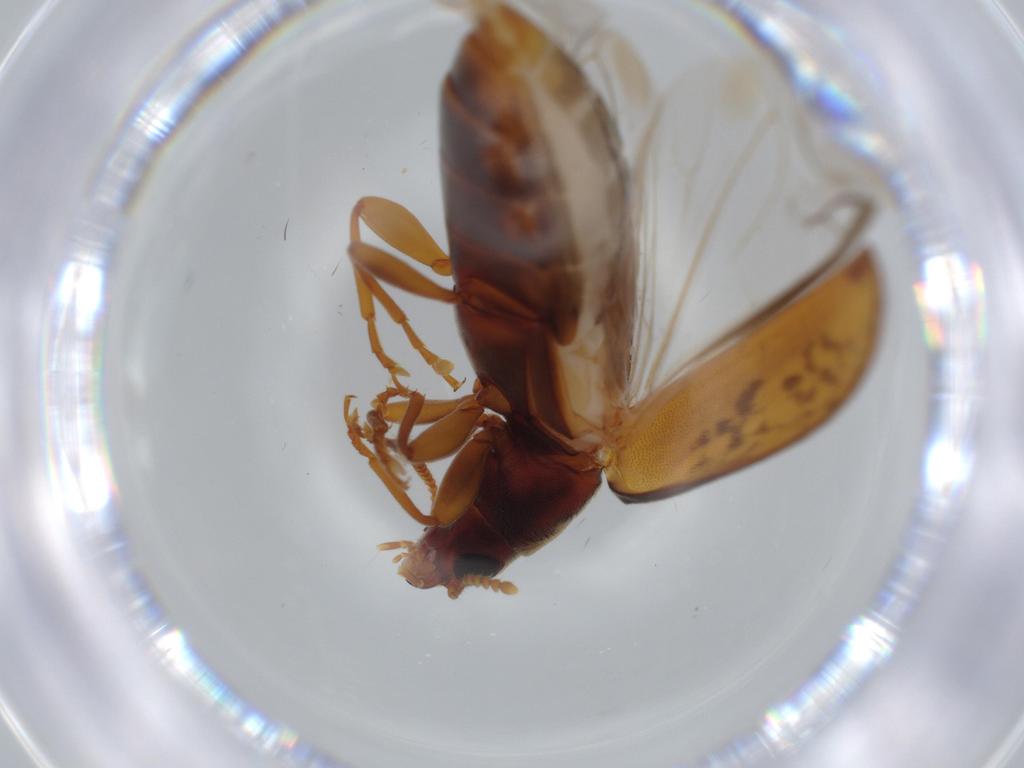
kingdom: Animalia
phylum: Arthropoda
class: Insecta
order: Coleoptera
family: Mycteridae
